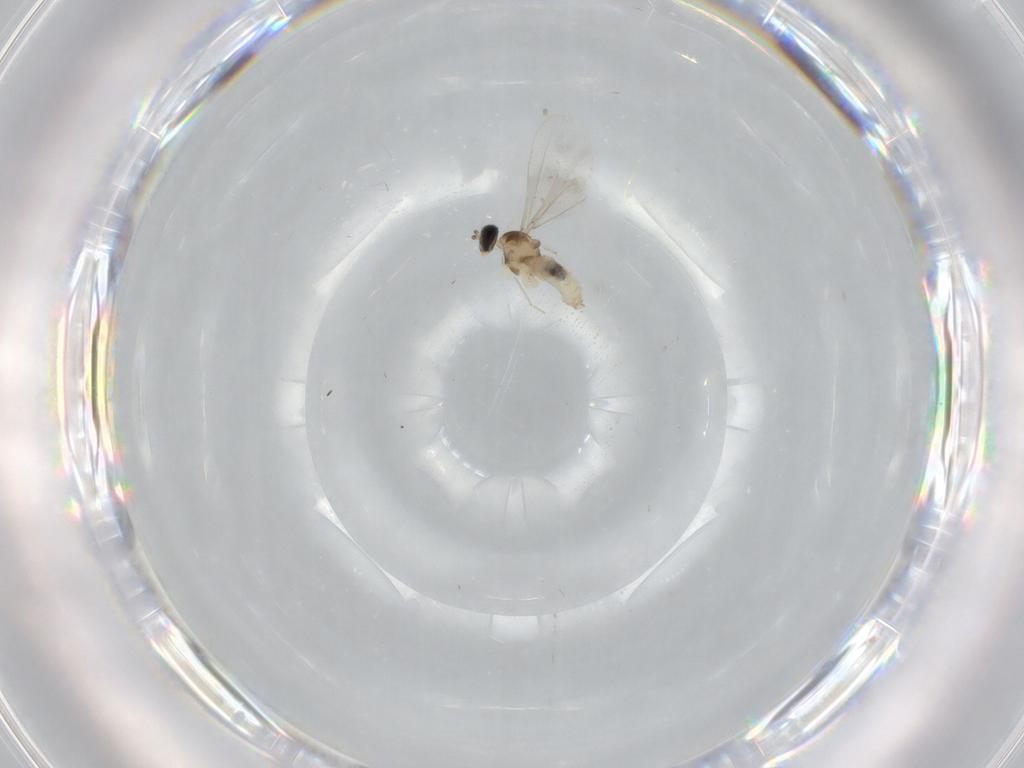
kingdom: Animalia
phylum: Arthropoda
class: Insecta
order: Diptera
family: Cecidomyiidae
